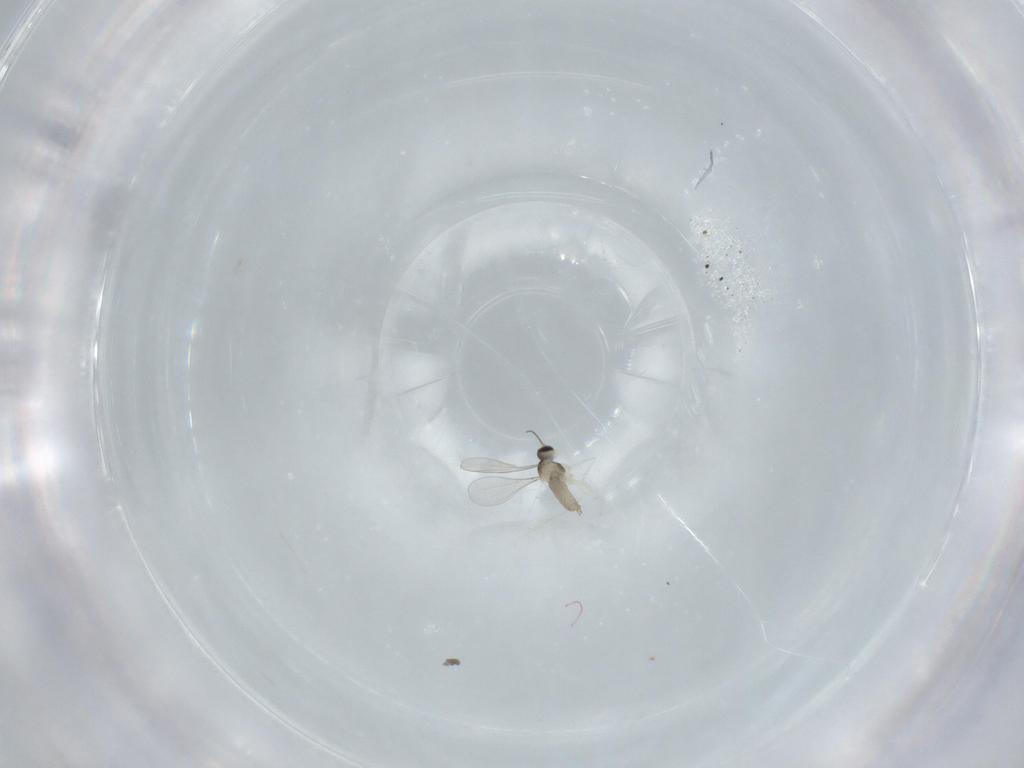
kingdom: Animalia
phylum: Arthropoda
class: Insecta
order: Diptera
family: Cecidomyiidae
